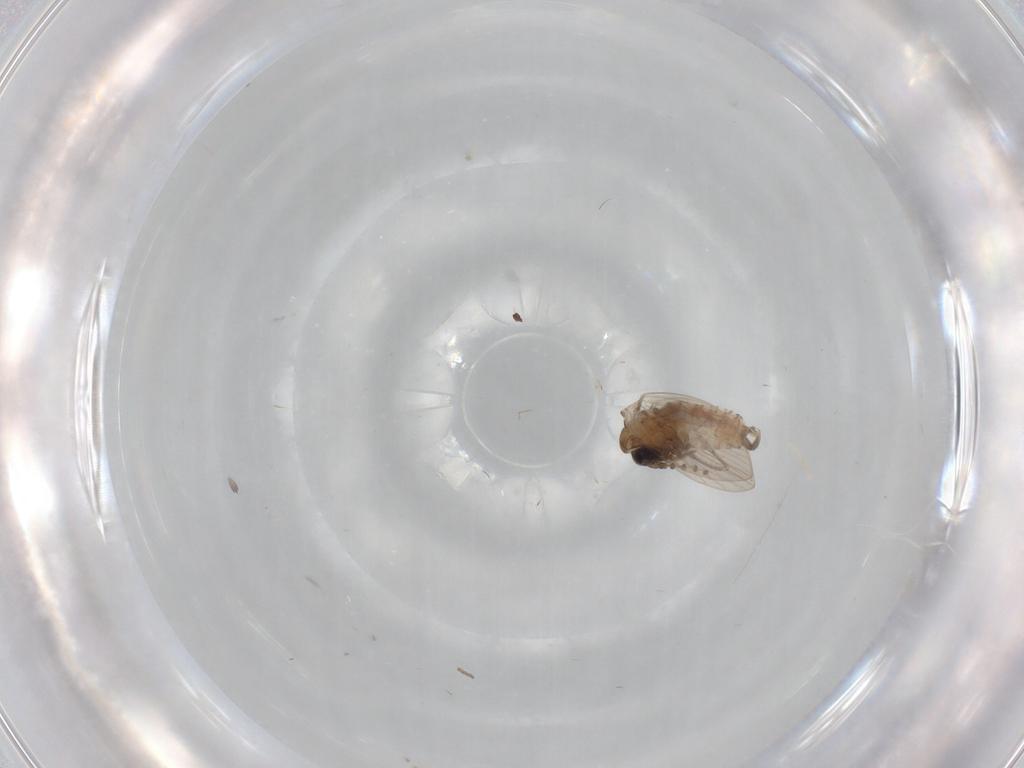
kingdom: Animalia
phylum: Arthropoda
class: Insecta
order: Diptera
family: Psychodidae
